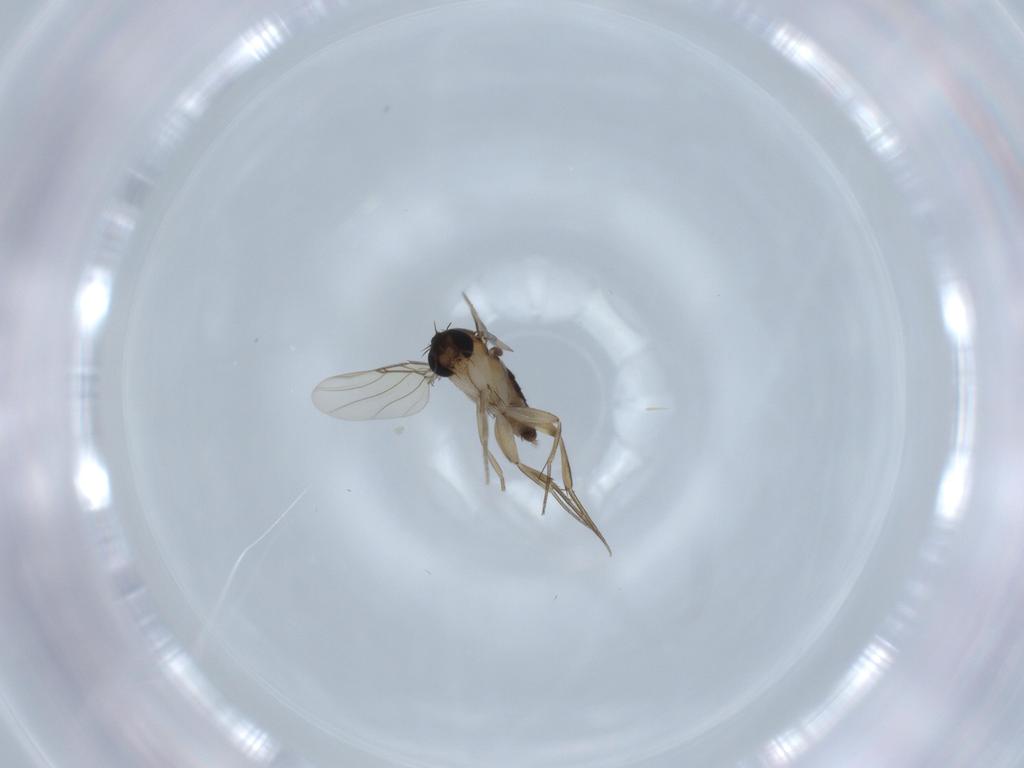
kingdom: Animalia
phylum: Arthropoda
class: Insecta
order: Diptera
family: Phoridae
